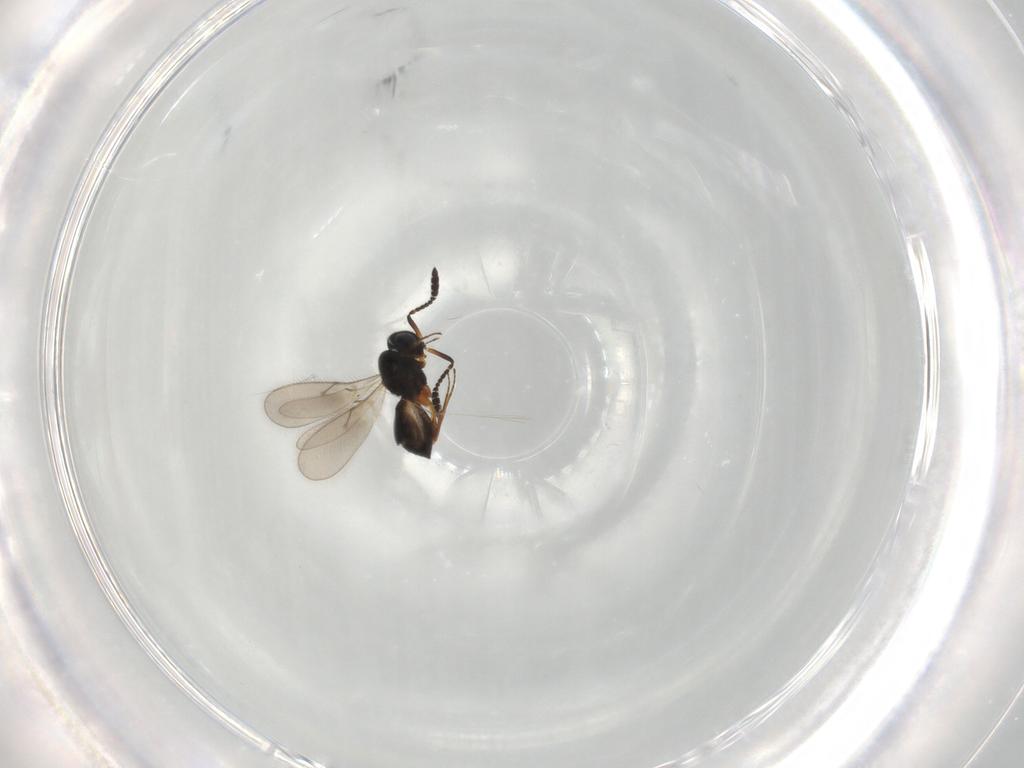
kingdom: Animalia
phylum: Arthropoda
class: Insecta
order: Hymenoptera
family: Scelionidae
